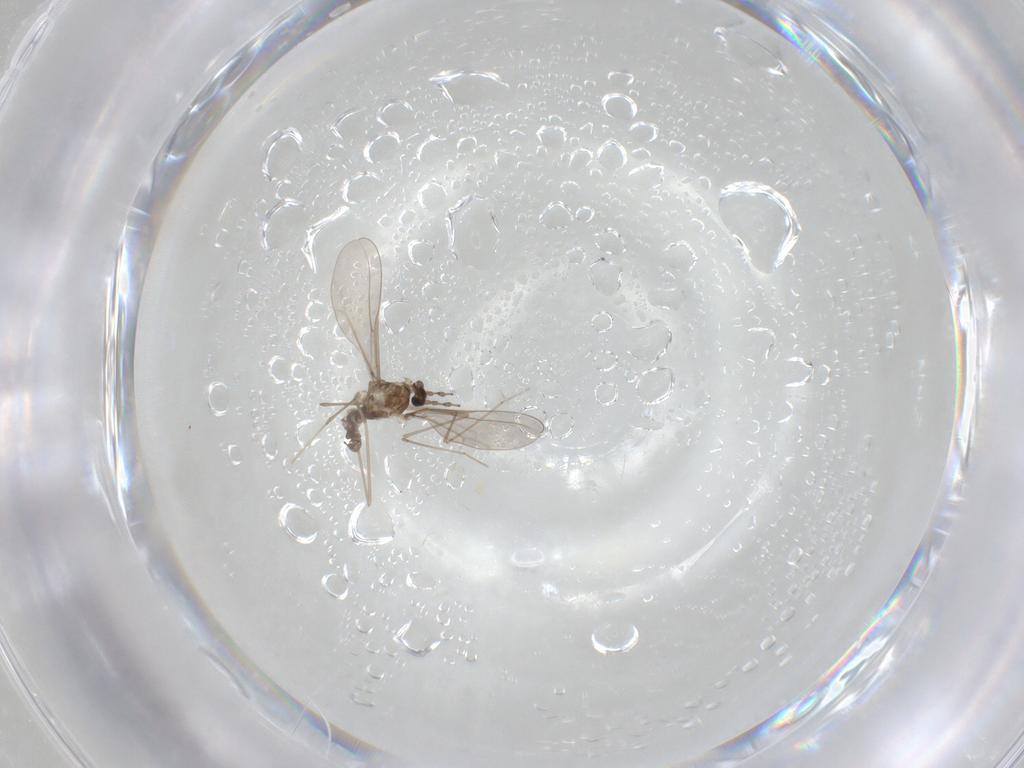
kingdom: Animalia
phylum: Arthropoda
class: Insecta
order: Diptera
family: Cecidomyiidae
